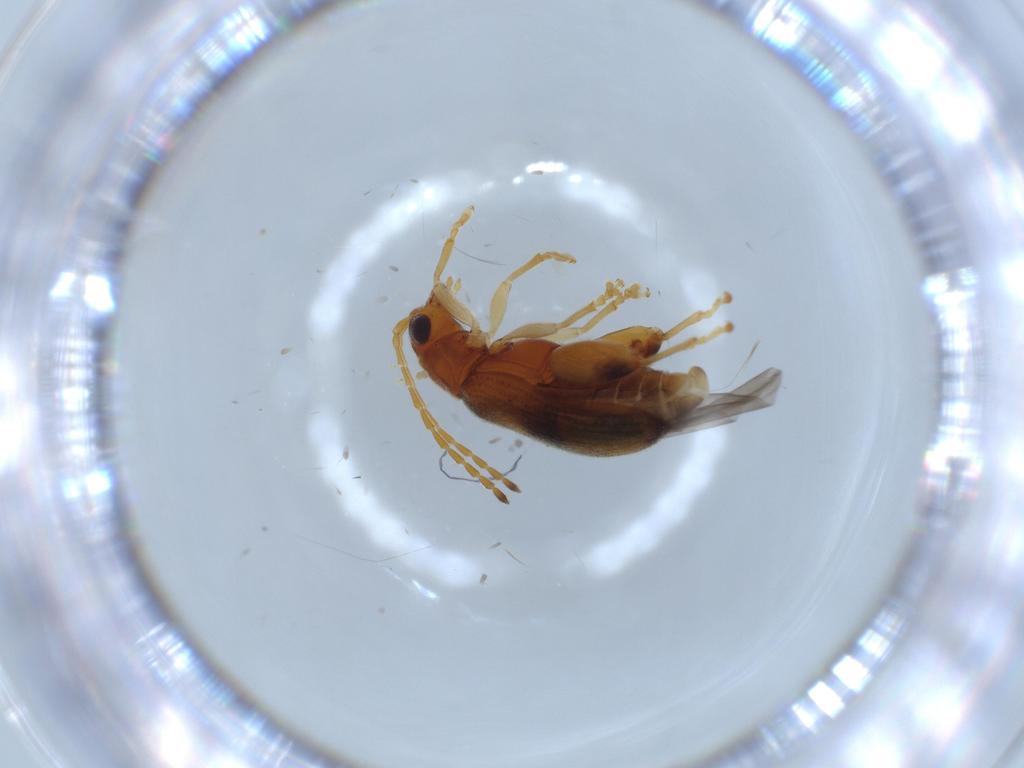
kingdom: Animalia
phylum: Arthropoda
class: Insecta
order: Coleoptera
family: Chrysomelidae
